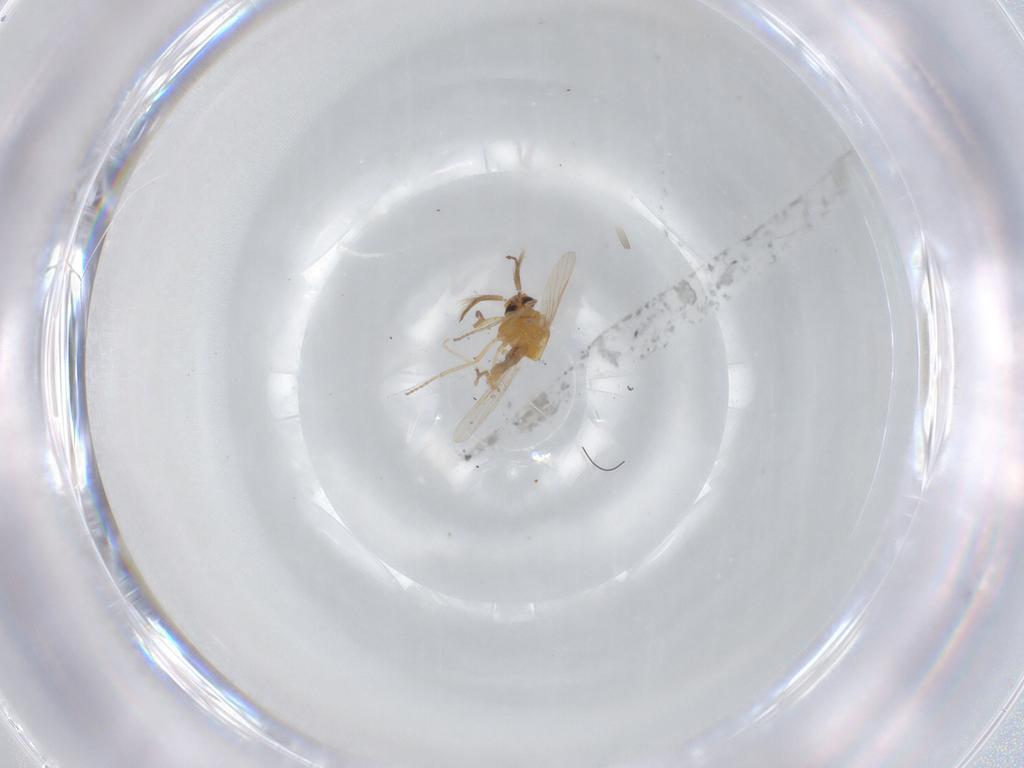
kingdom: Animalia
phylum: Arthropoda
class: Insecta
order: Diptera
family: Ceratopogonidae
